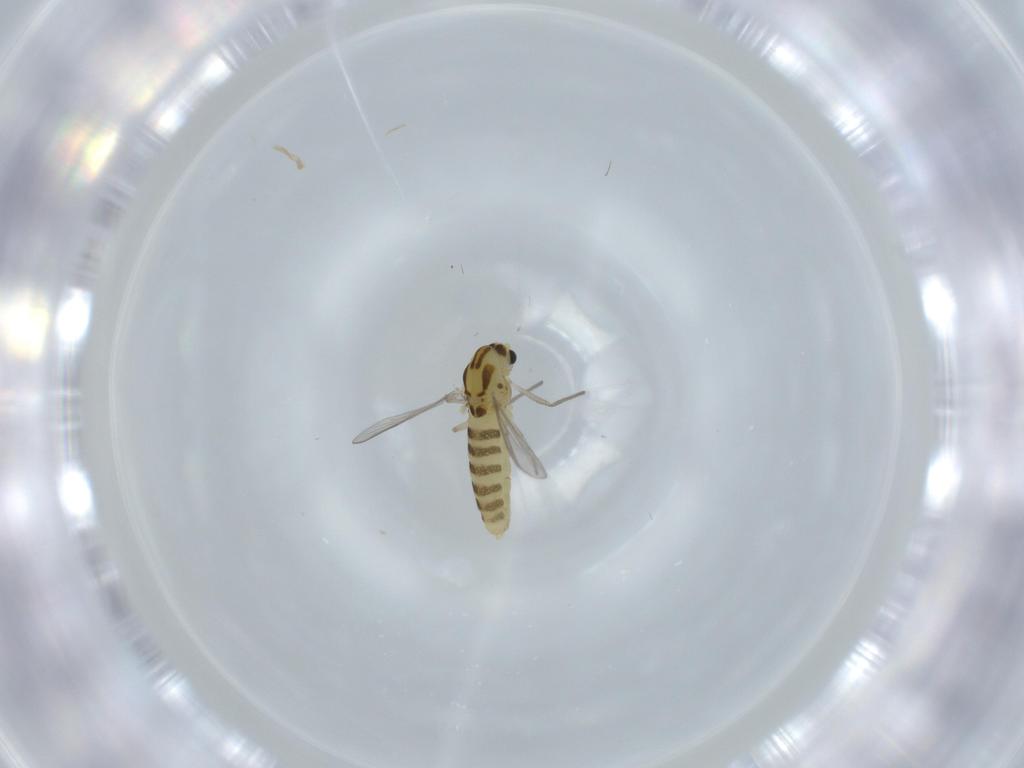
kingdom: Animalia
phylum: Arthropoda
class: Insecta
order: Diptera
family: Chironomidae
